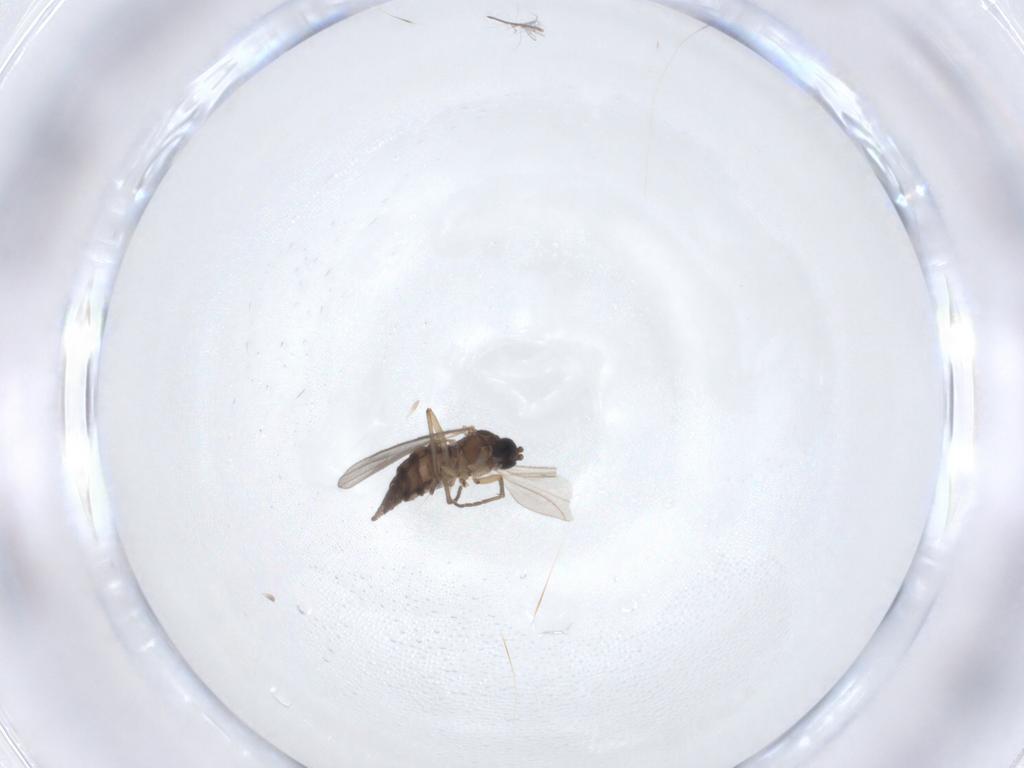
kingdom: Animalia
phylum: Arthropoda
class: Insecta
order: Diptera
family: Sciaridae
